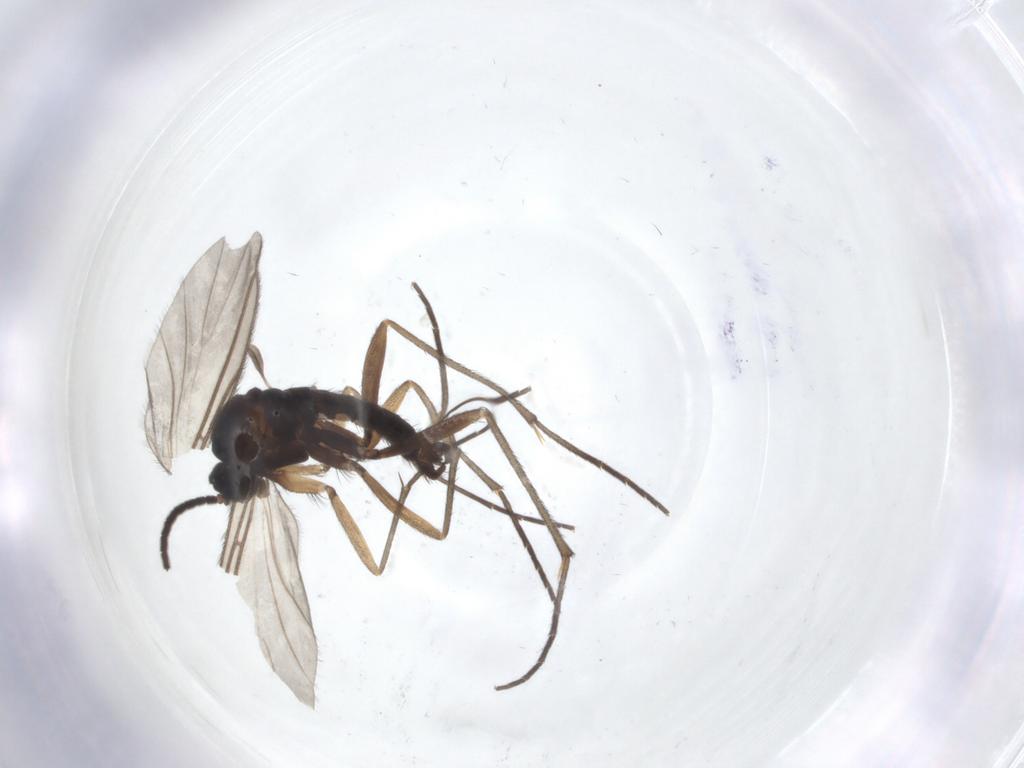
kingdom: Animalia
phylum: Arthropoda
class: Insecta
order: Diptera
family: Sciaridae
